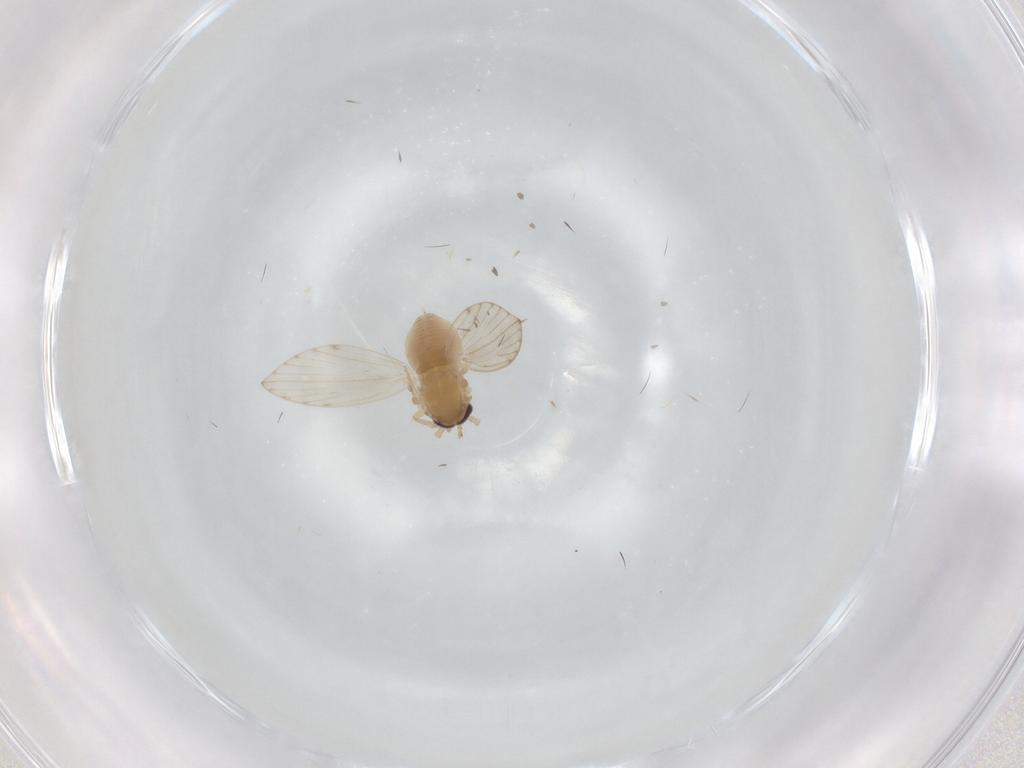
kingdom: Animalia
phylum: Arthropoda
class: Insecta
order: Diptera
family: Psychodidae
